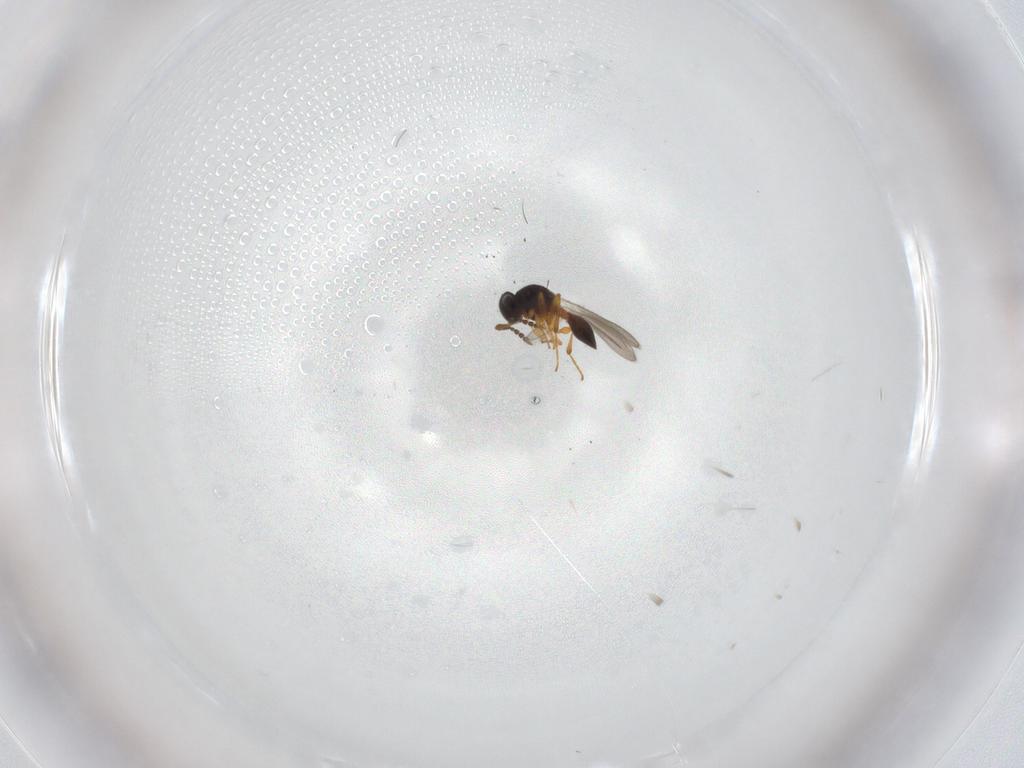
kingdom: Animalia
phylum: Arthropoda
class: Insecta
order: Hymenoptera
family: Platygastridae
